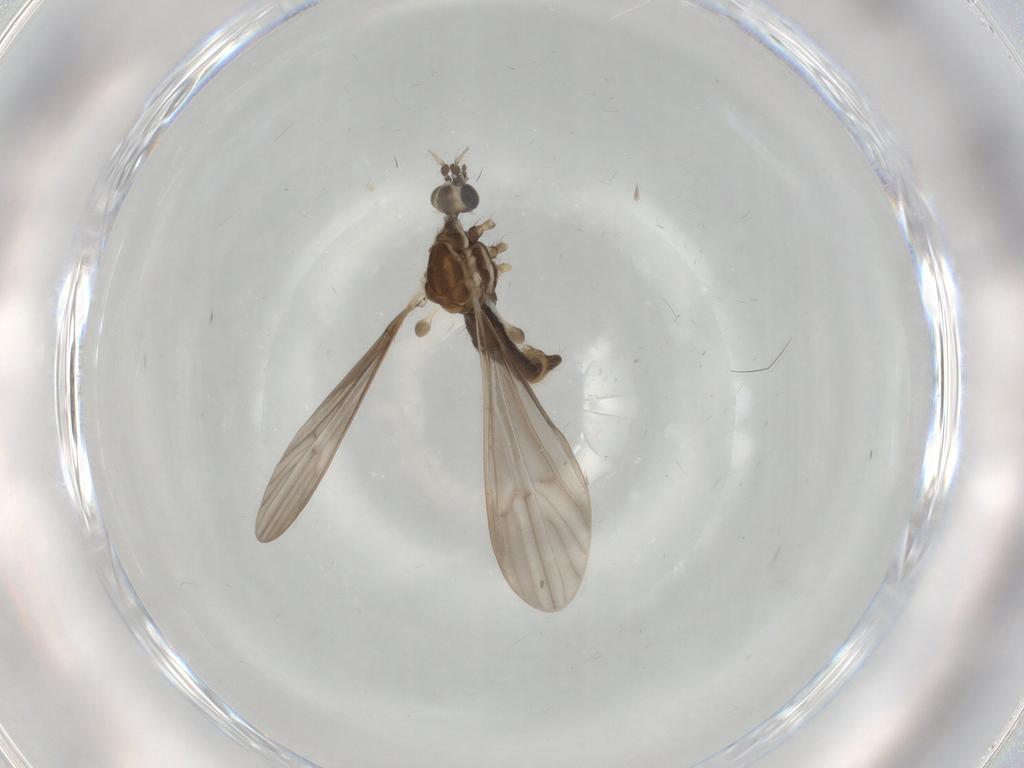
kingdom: Animalia
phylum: Arthropoda
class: Insecta
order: Diptera
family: Limoniidae
